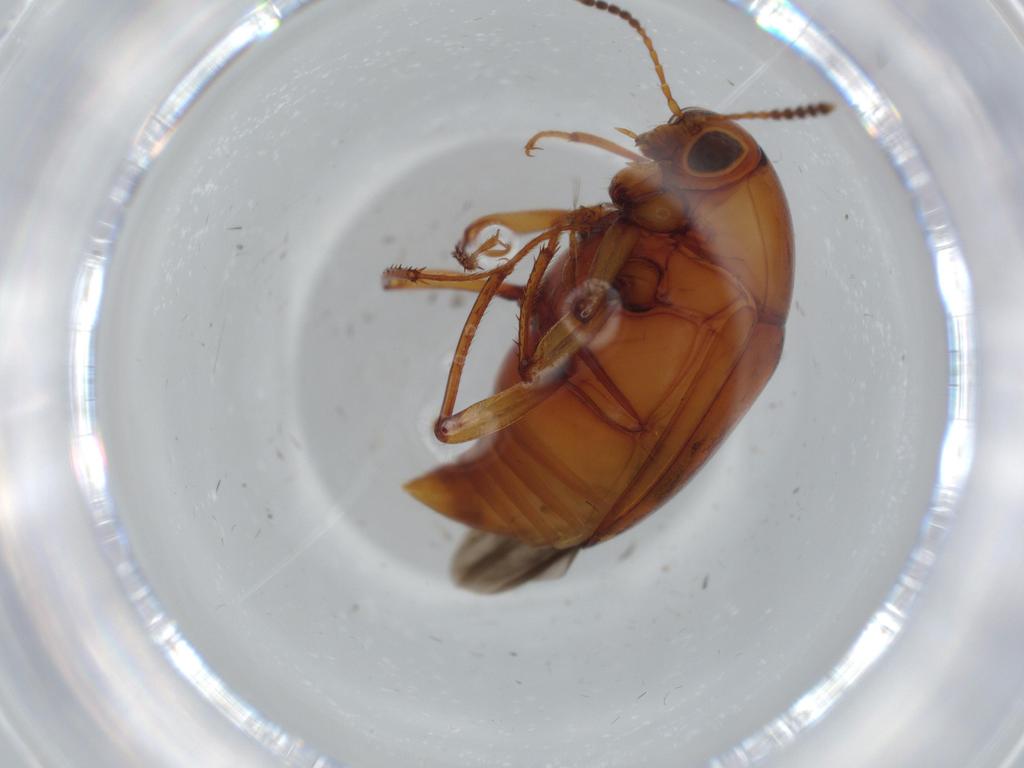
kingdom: Animalia
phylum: Arthropoda
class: Insecta
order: Coleoptera
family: Staphylinidae
